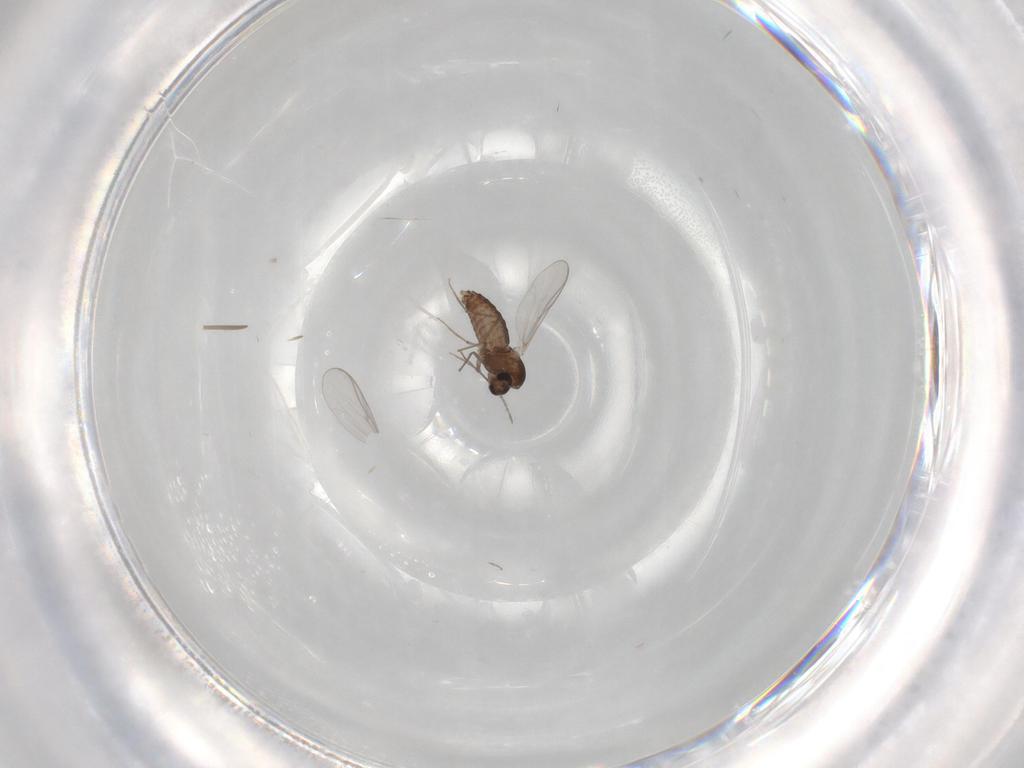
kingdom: Animalia
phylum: Arthropoda
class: Insecta
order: Diptera
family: Chironomidae
